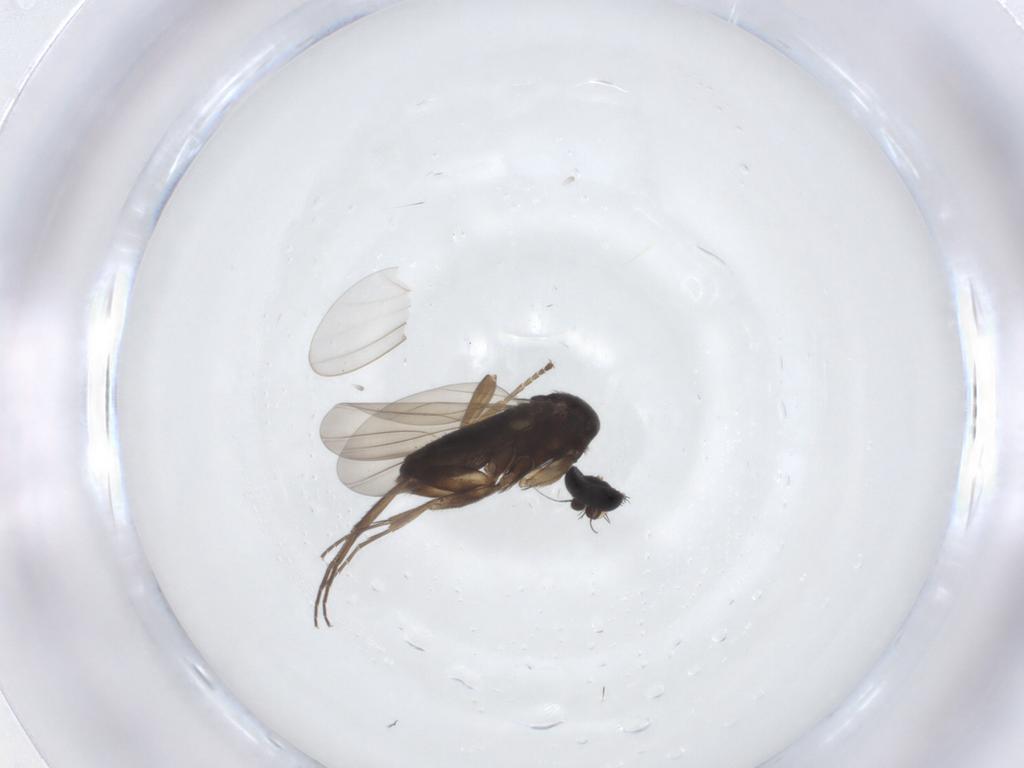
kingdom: Animalia
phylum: Arthropoda
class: Insecta
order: Diptera
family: Phoridae
